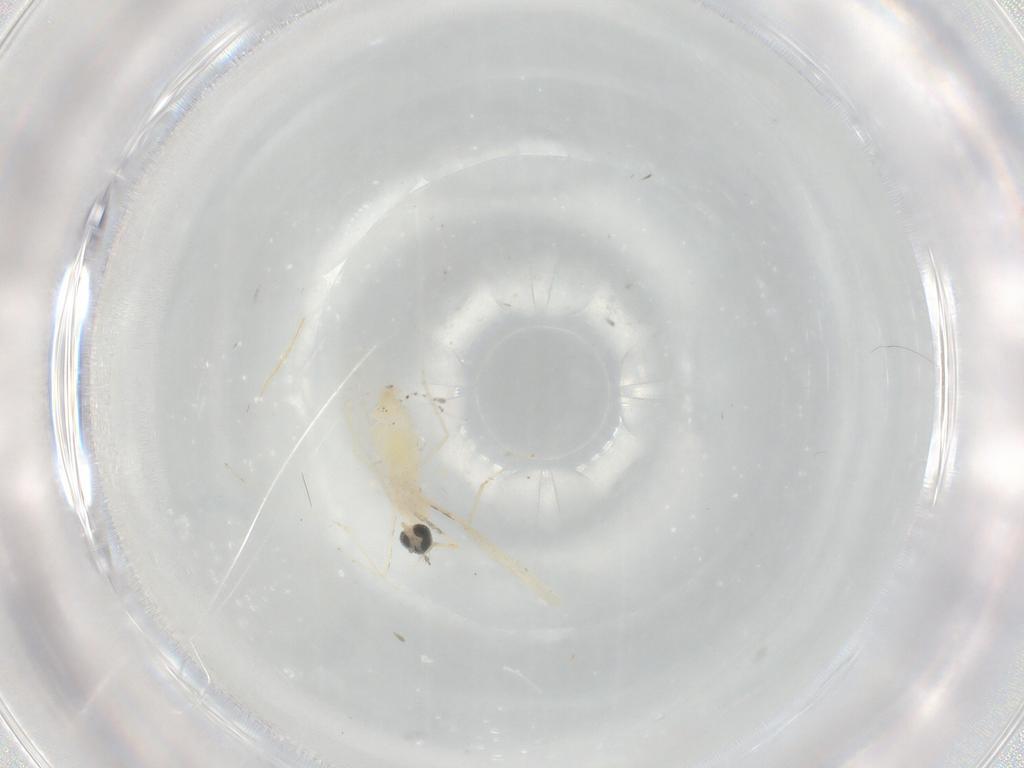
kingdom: Animalia
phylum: Arthropoda
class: Insecta
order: Diptera
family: Cecidomyiidae
